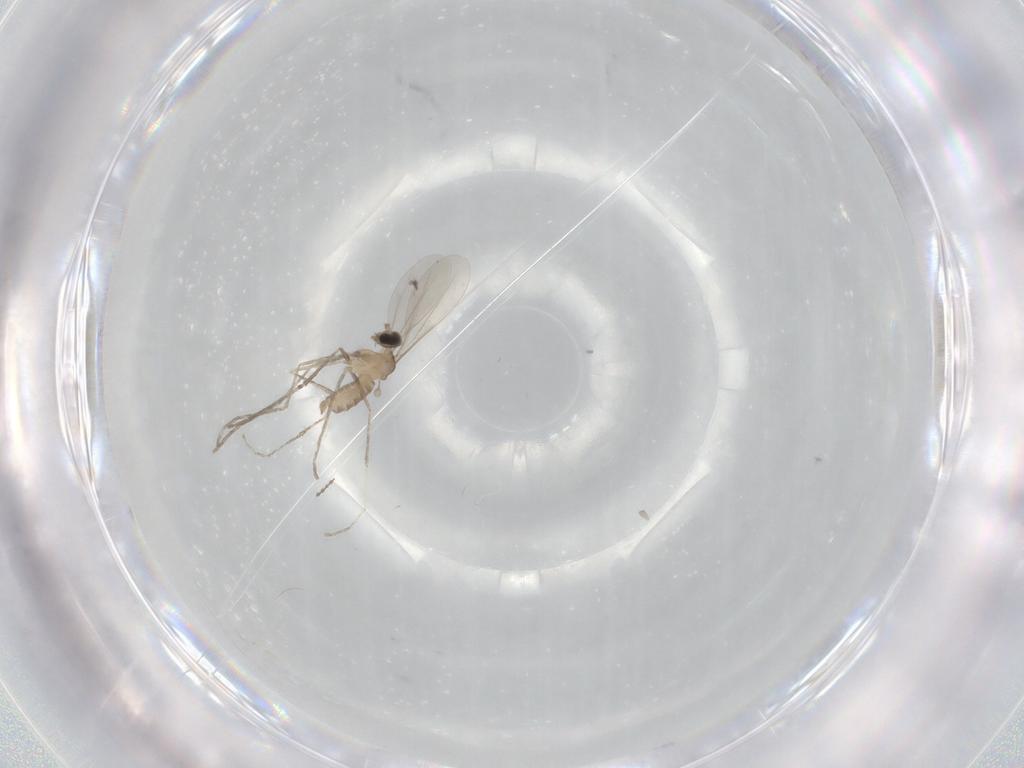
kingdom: Animalia
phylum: Arthropoda
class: Insecta
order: Diptera
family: Cecidomyiidae
